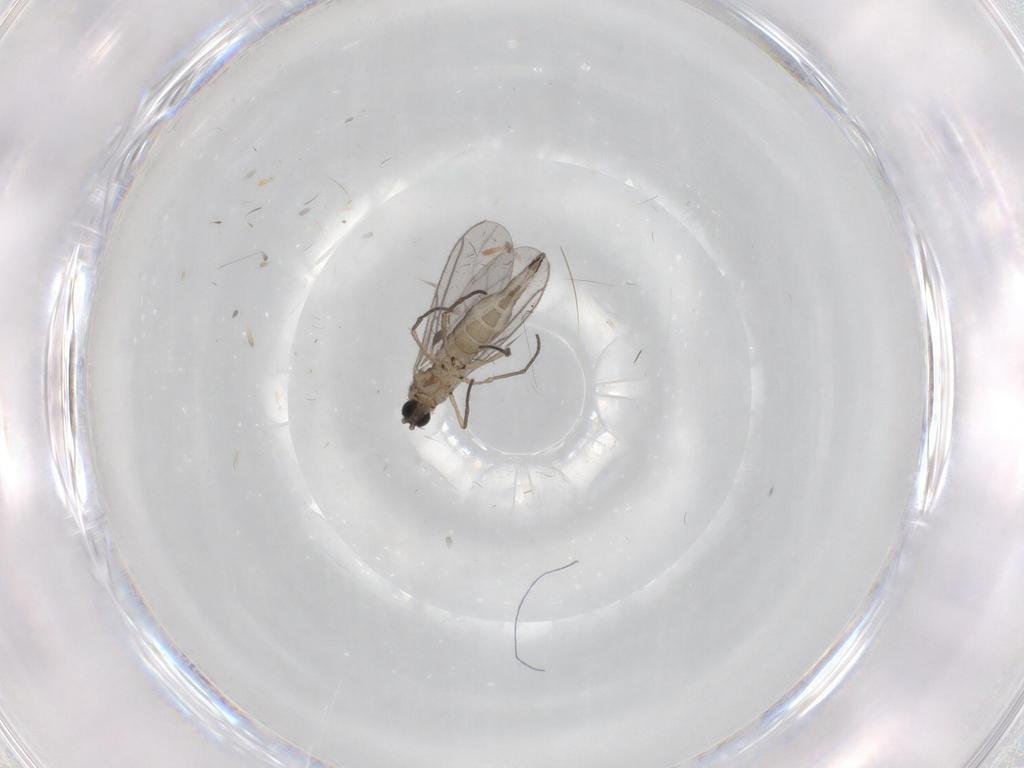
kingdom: Animalia
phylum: Arthropoda
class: Insecta
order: Diptera
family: Sciaridae
